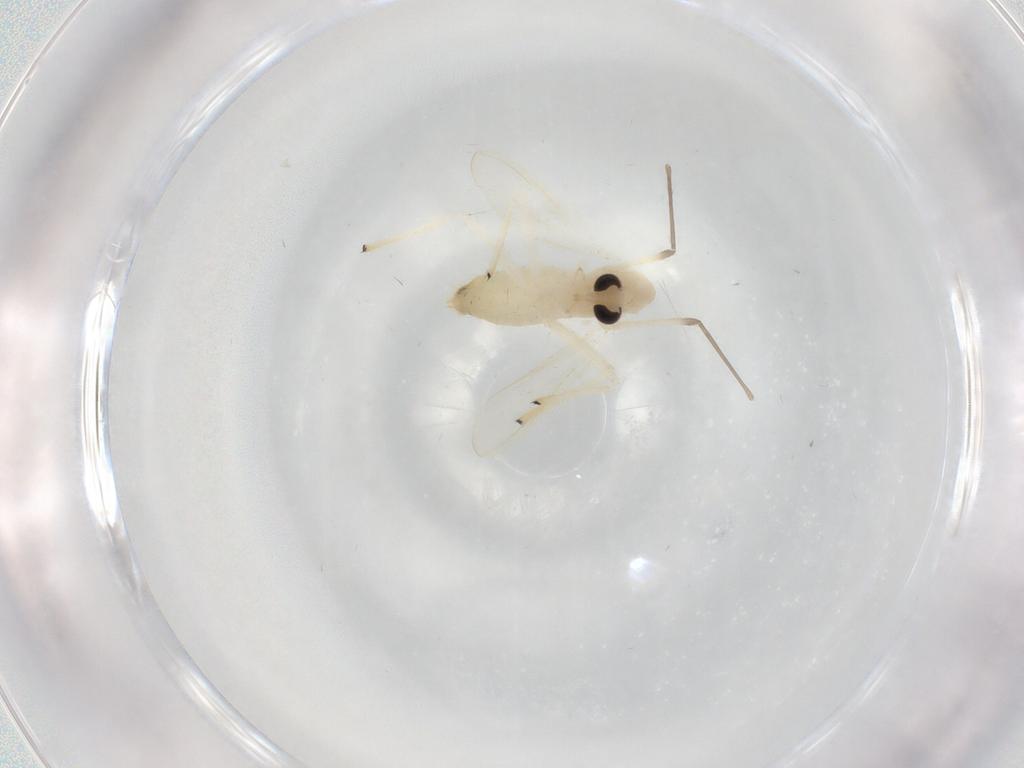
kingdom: Animalia
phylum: Arthropoda
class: Insecta
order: Diptera
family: Chironomidae
